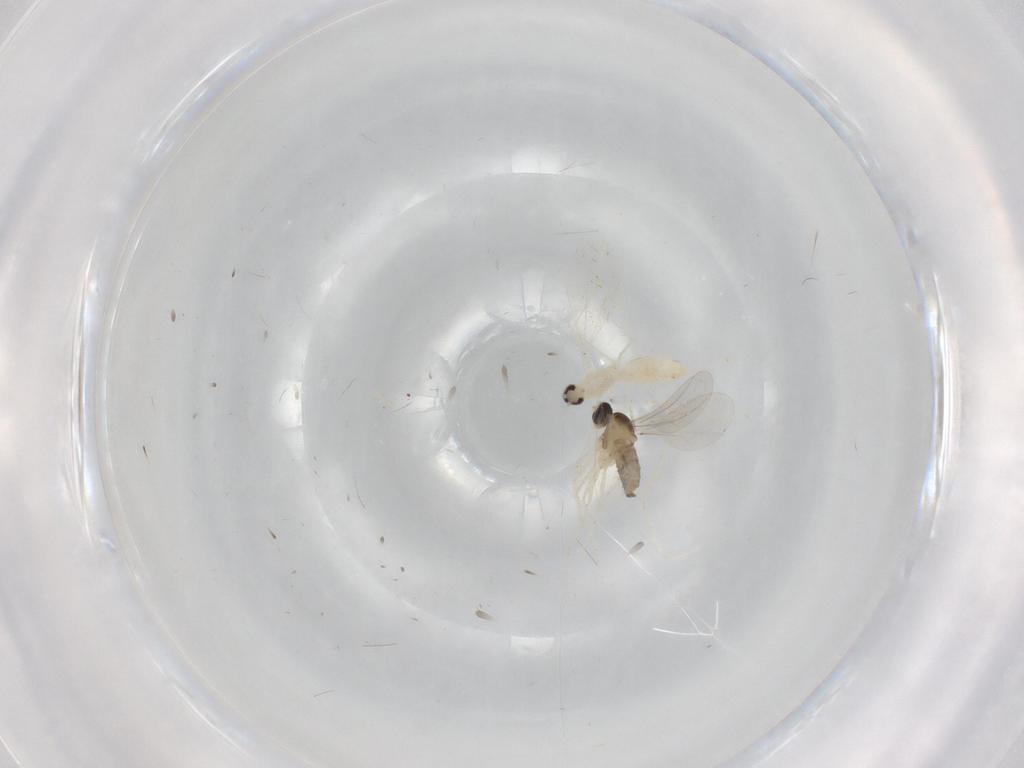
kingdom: Animalia
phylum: Arthropoda
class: Insecta
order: Diptera
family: Cecidomyiidae
